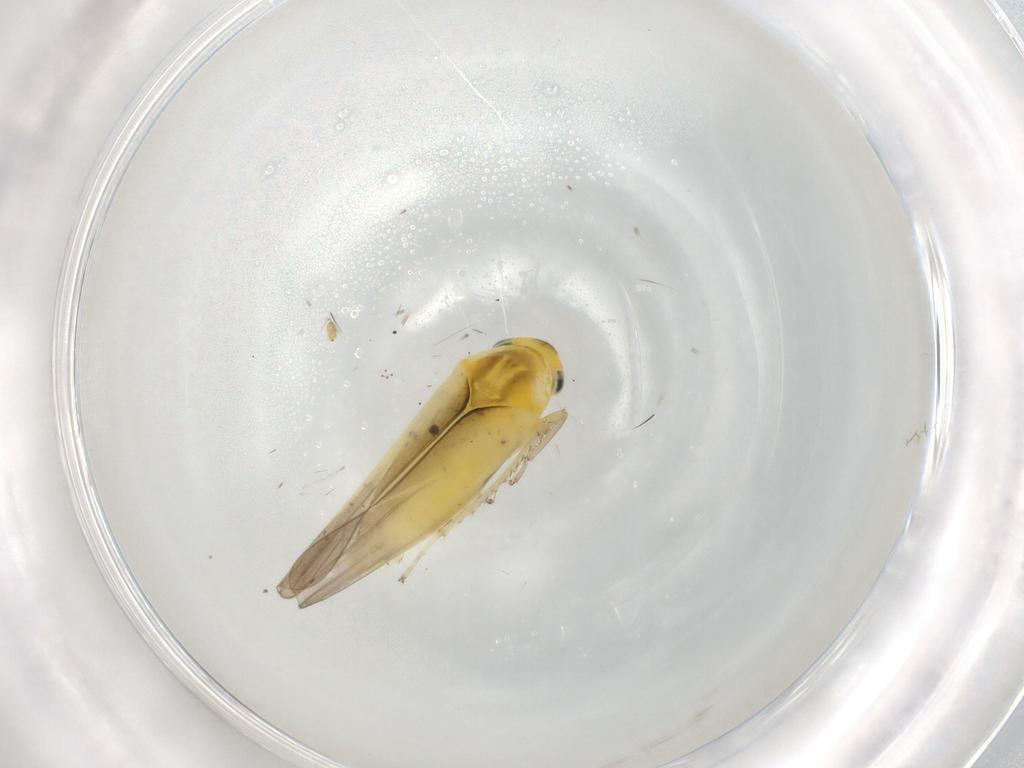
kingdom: Animalia
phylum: Arthropoda
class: Insecta
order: Hemiptera
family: Cicadellidae
